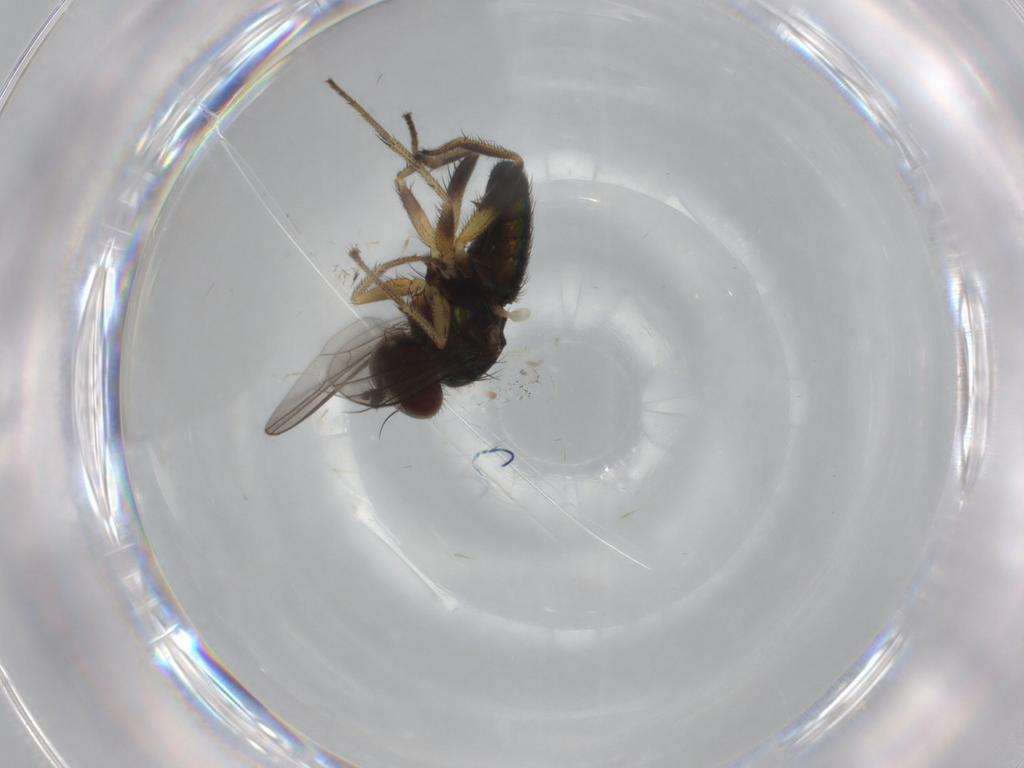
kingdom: Animalia
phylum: Arthropoda
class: Insecta
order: Diptera
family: Dolichopodidae
